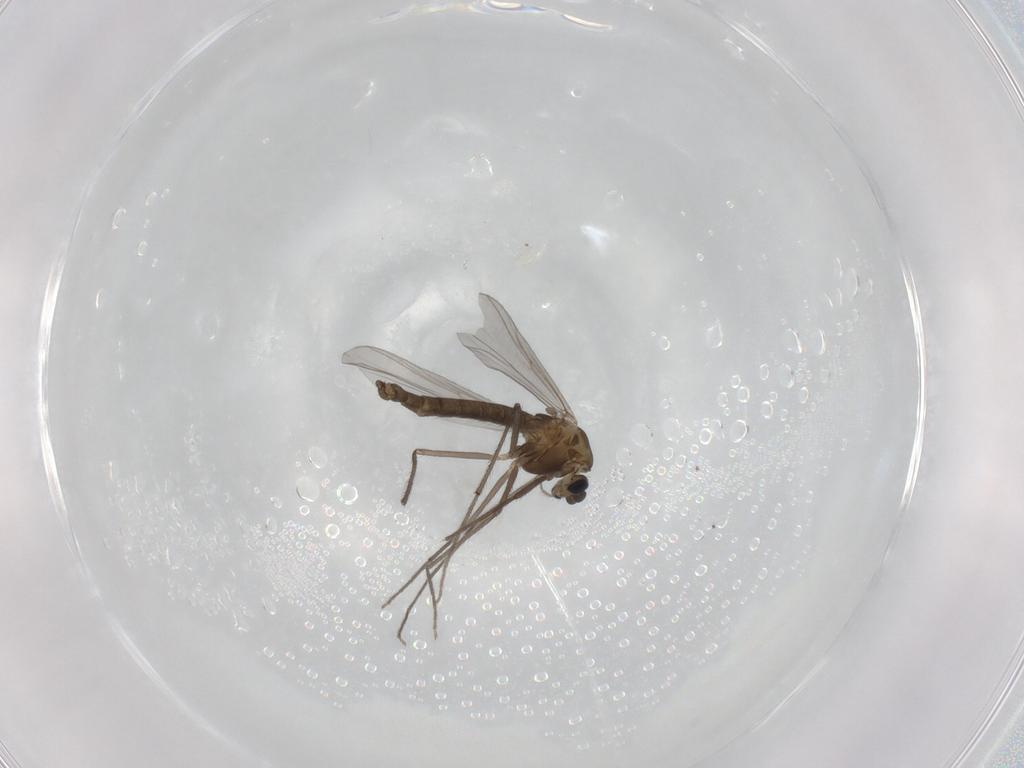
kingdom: Animalia
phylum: Arthropoda
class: Insecta
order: Diptera
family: Chironomidae
